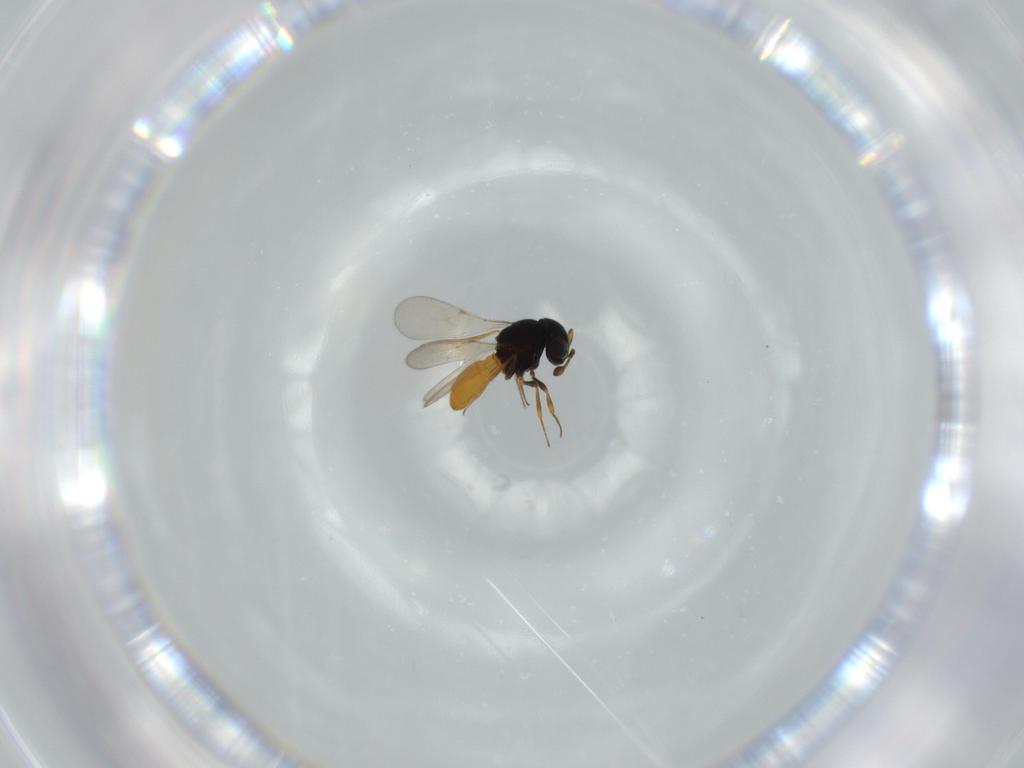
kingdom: Animalia
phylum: Arthropoda
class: Insecta
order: Hymenoptera
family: Scelionidae
